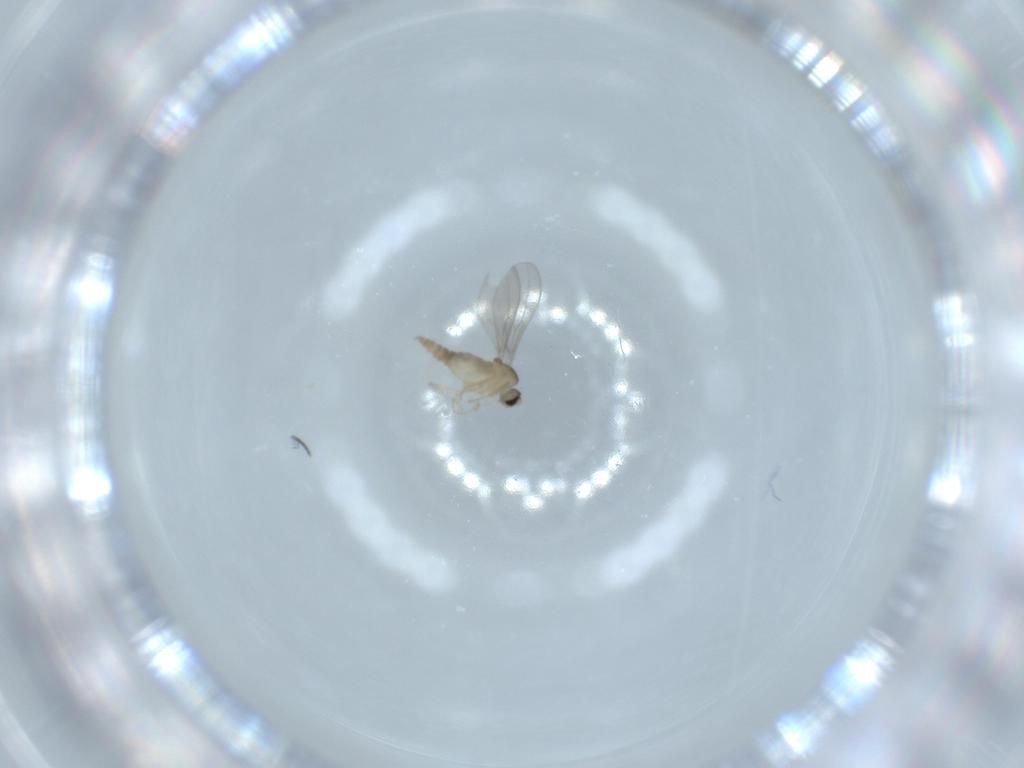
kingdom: Animalia
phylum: Arthropoda
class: Insecta
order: Diptera
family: Cecidomyiidae
